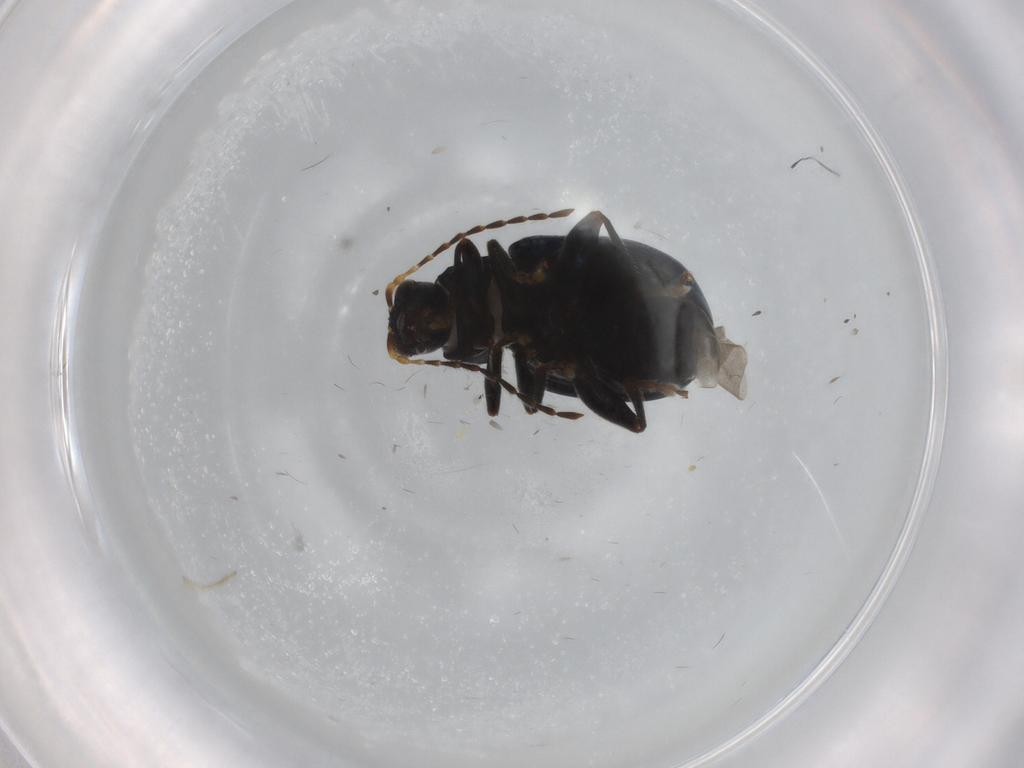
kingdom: Animalia
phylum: Arthropoda
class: Insecta
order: Coleoptera
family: Chrysomelidae
